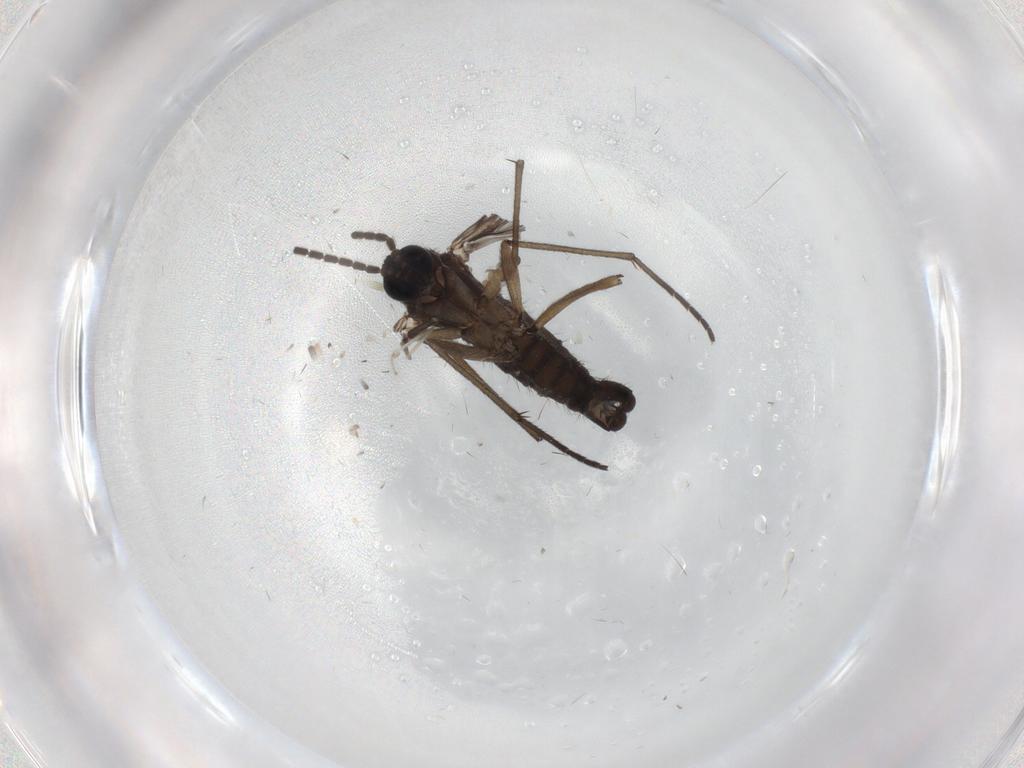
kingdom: Animalia
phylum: Arthropoda
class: Insecta
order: Diptera
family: Sciaridae
